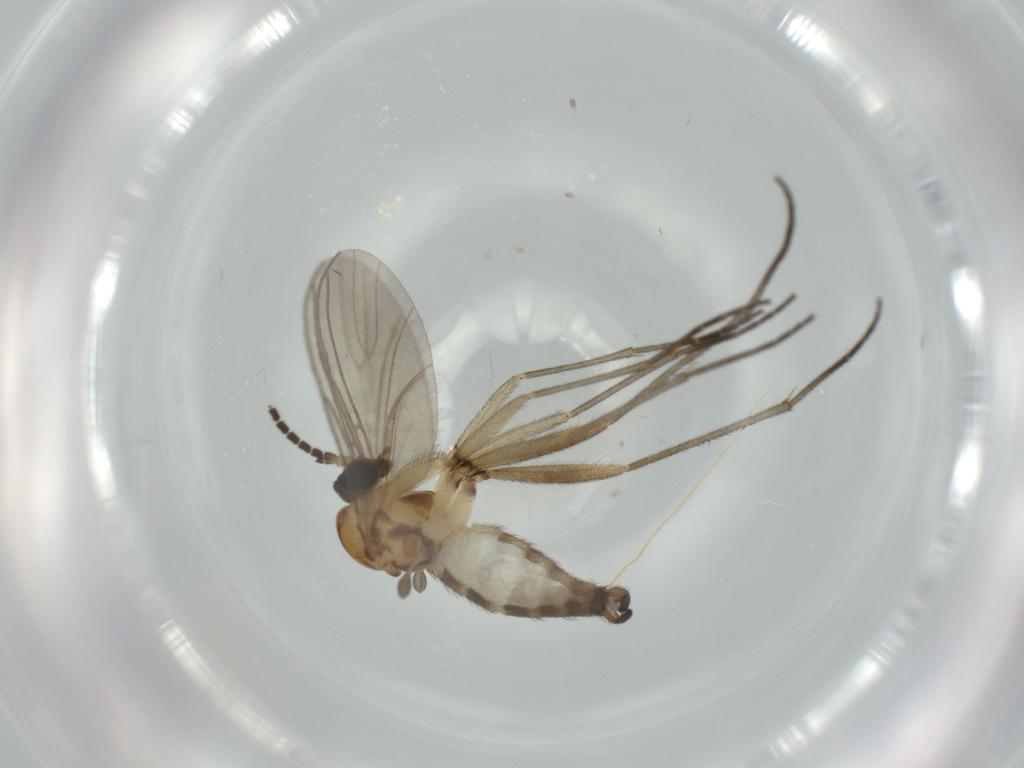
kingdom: Animalia
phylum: Arthropoda
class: Insecta
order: Diptera
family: Sciaridae
